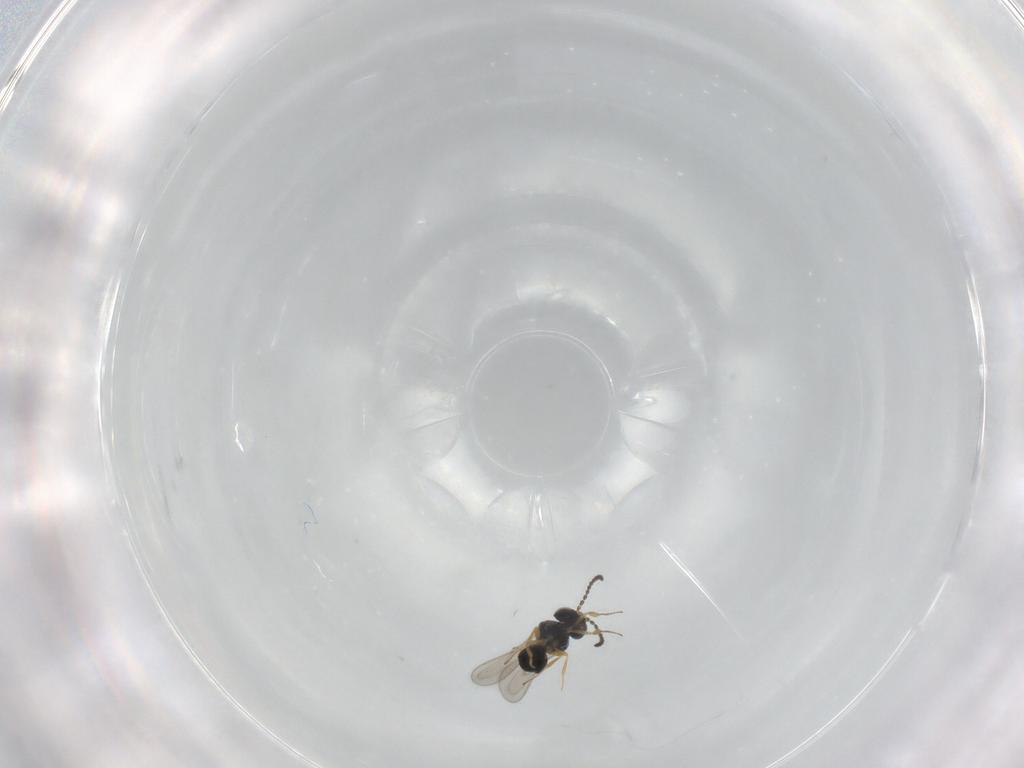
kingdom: Animalia
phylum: Arthropoda
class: Insecta
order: Hymenoptera
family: Scelionidae
